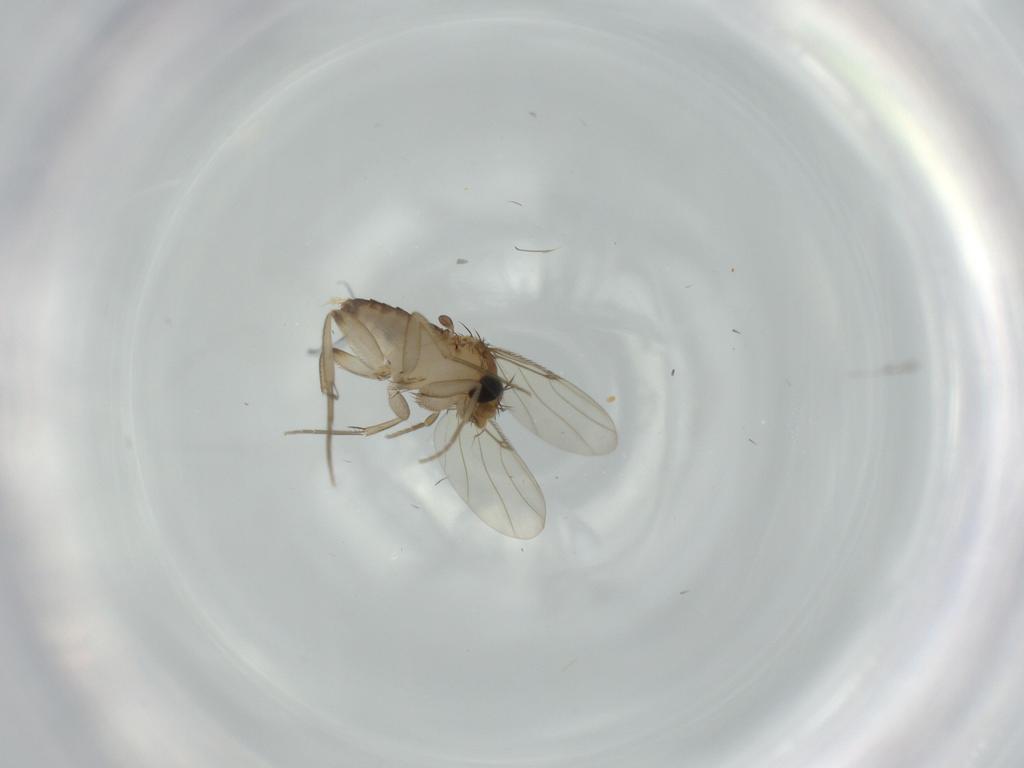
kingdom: Animalia
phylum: Arthropoda
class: Insecta
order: Diptera
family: Phoridae
